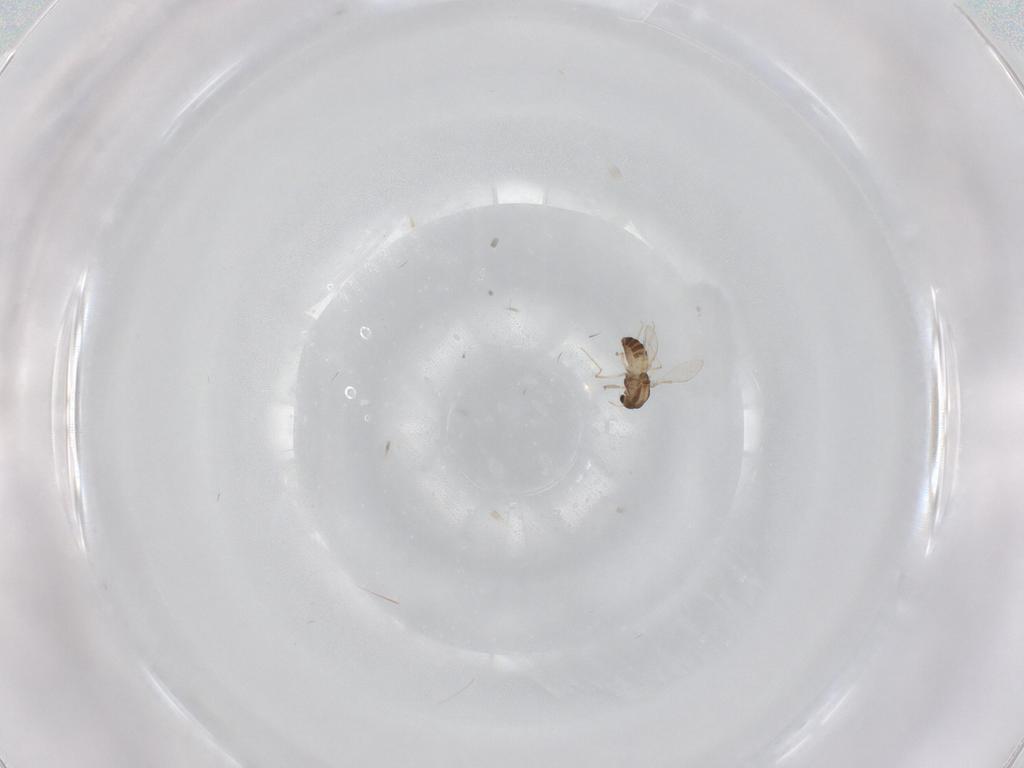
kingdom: Animalia
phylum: Arthropoda
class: Insecta
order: Diptera
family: Chironomidae
